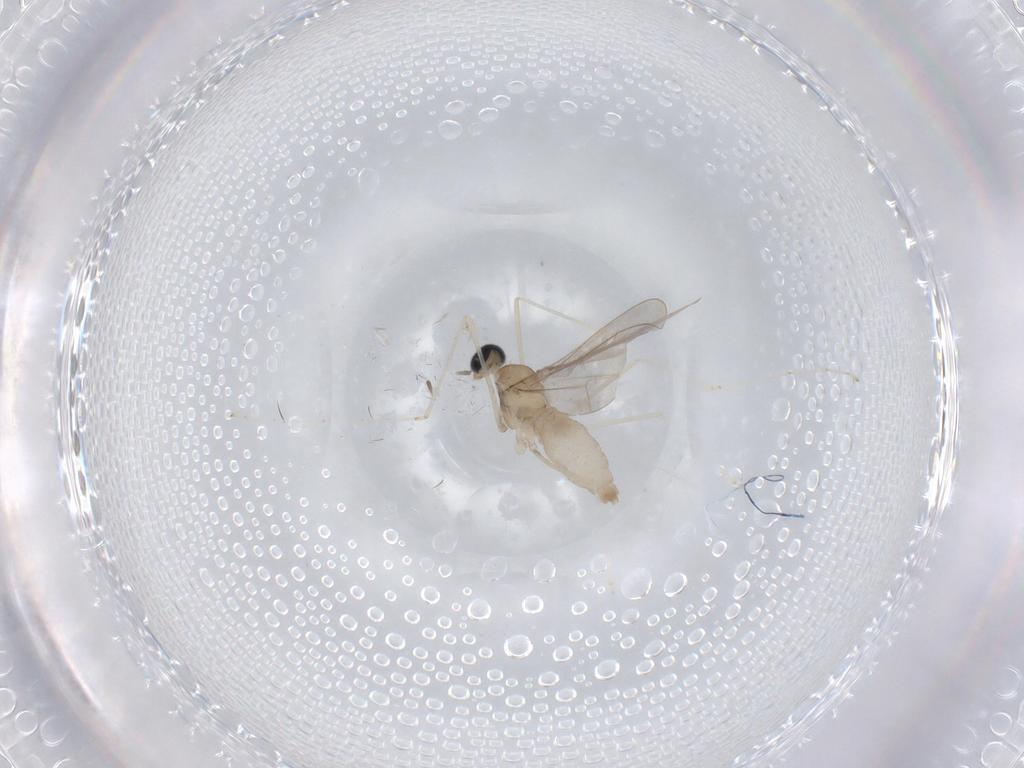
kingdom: Animalia
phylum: Arthropoda
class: Insecta
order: Diptera
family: Cecidomyiidae
